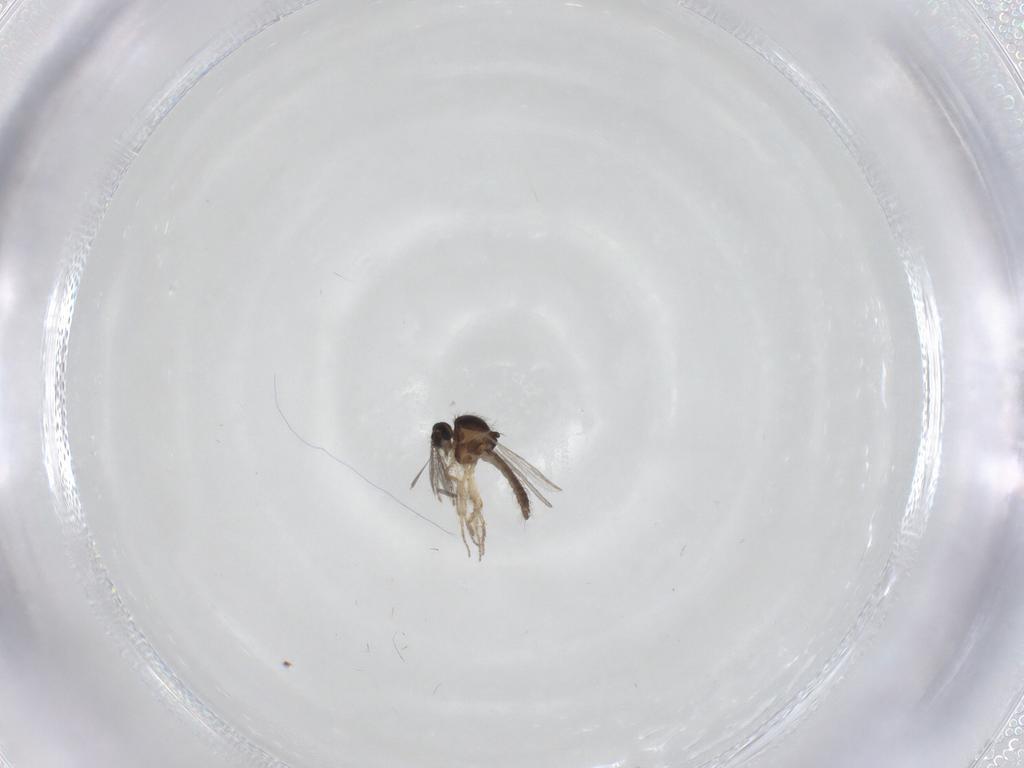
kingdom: Animalia
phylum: Arthropoda
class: Insecta
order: Diptera
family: Ceratopogonidae
